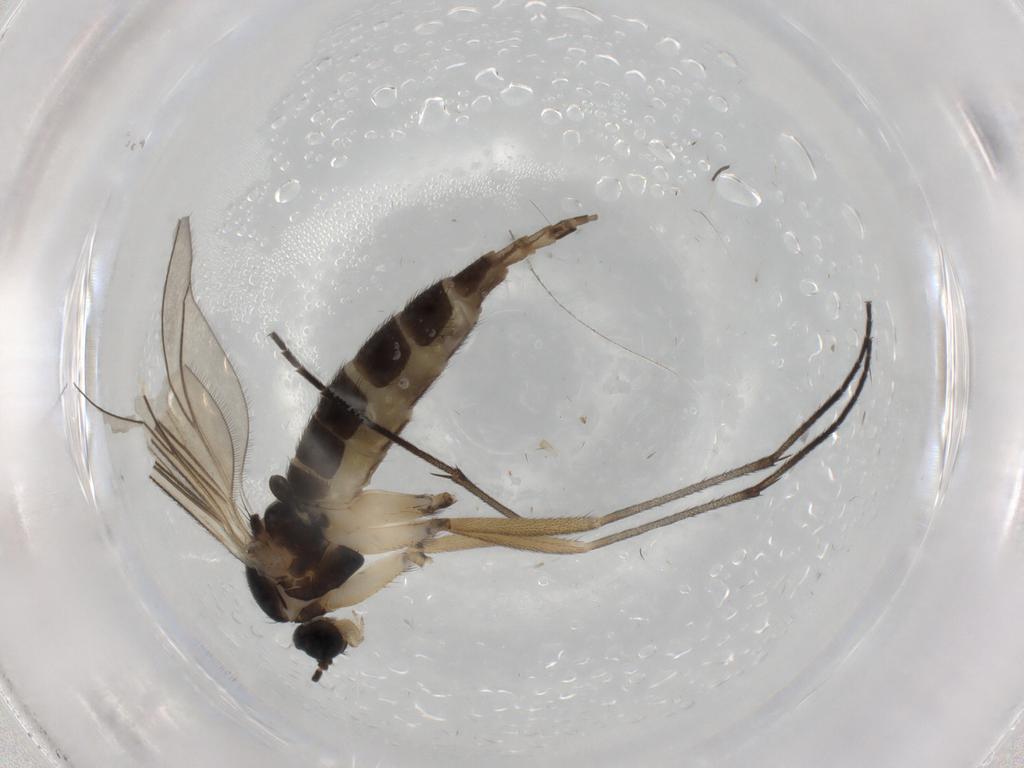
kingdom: Animalia
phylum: Arthropoda
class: Insecta
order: Diptera
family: Sciaridae
